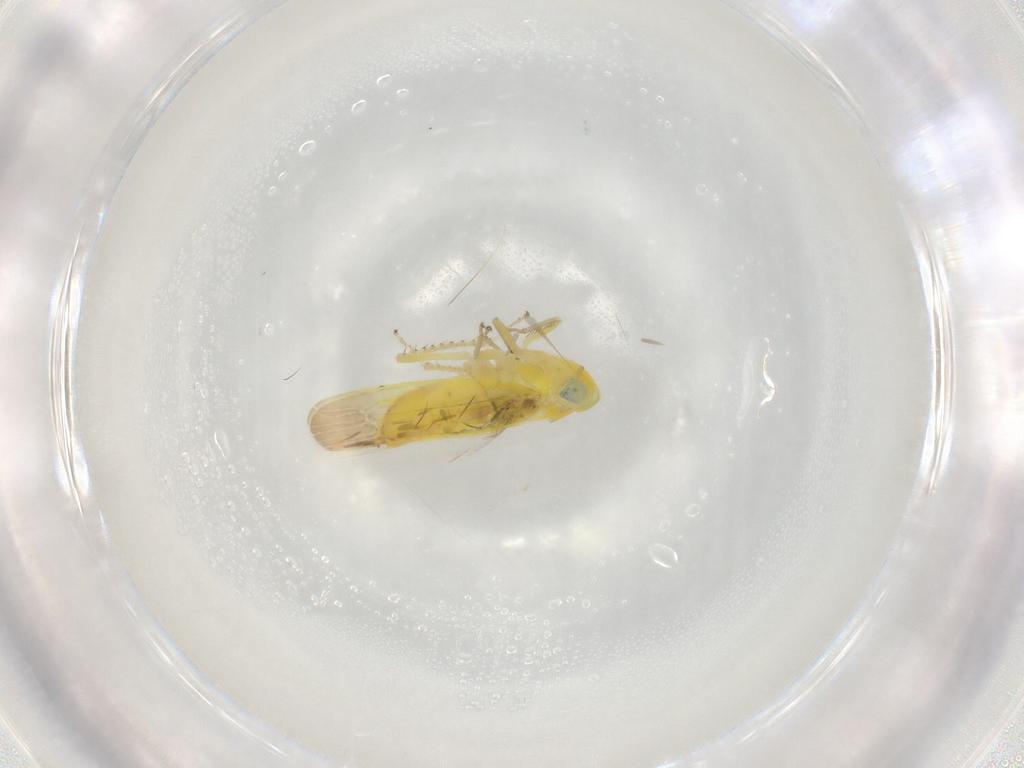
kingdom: Animalia
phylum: Arthropoda
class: Insecta
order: Hemiptera
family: Cicadellidae
